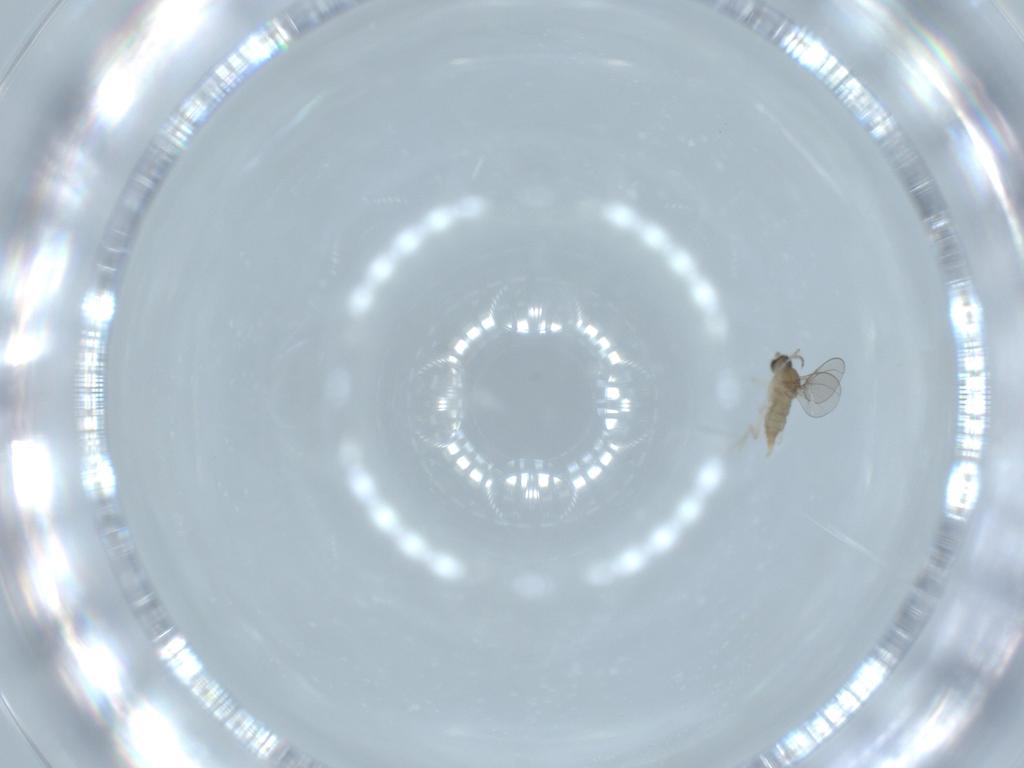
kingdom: Animalia
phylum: Arthropoda
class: Insecta
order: Diptera
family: Cecidomyiidae
